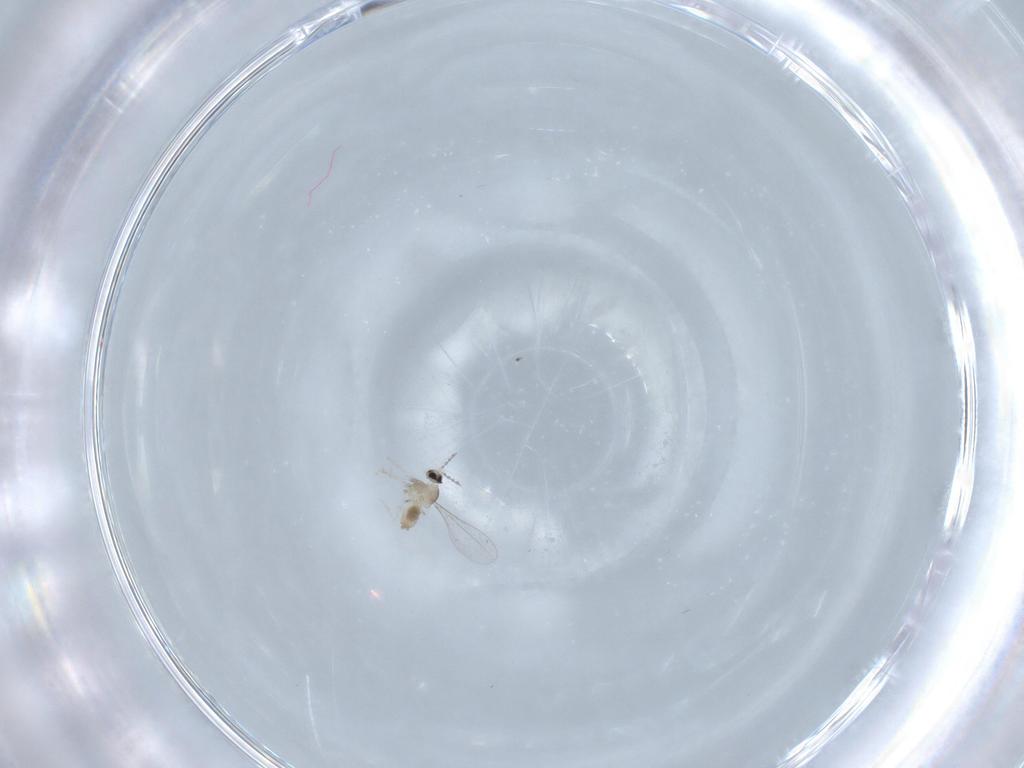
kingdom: Animalia
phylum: Arthropoda
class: Insecta
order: Diptera
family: Cecidomyiidae
